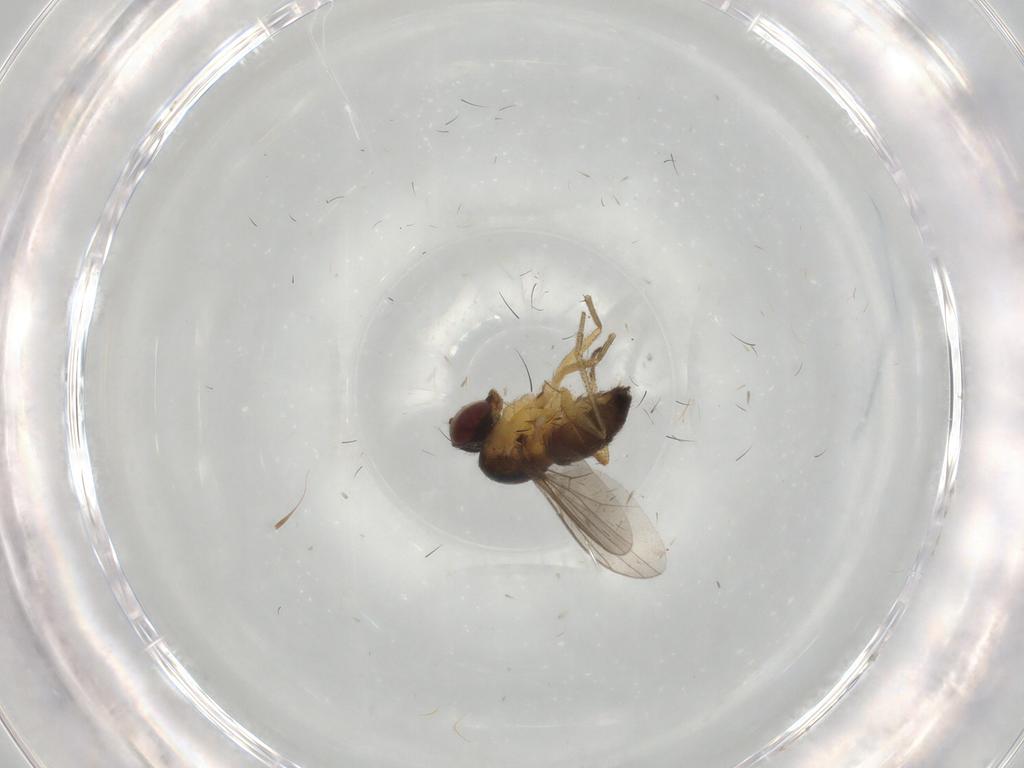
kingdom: Animalia
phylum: Arthropoda
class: Insecta
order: Diptera
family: Dolichopodidae
